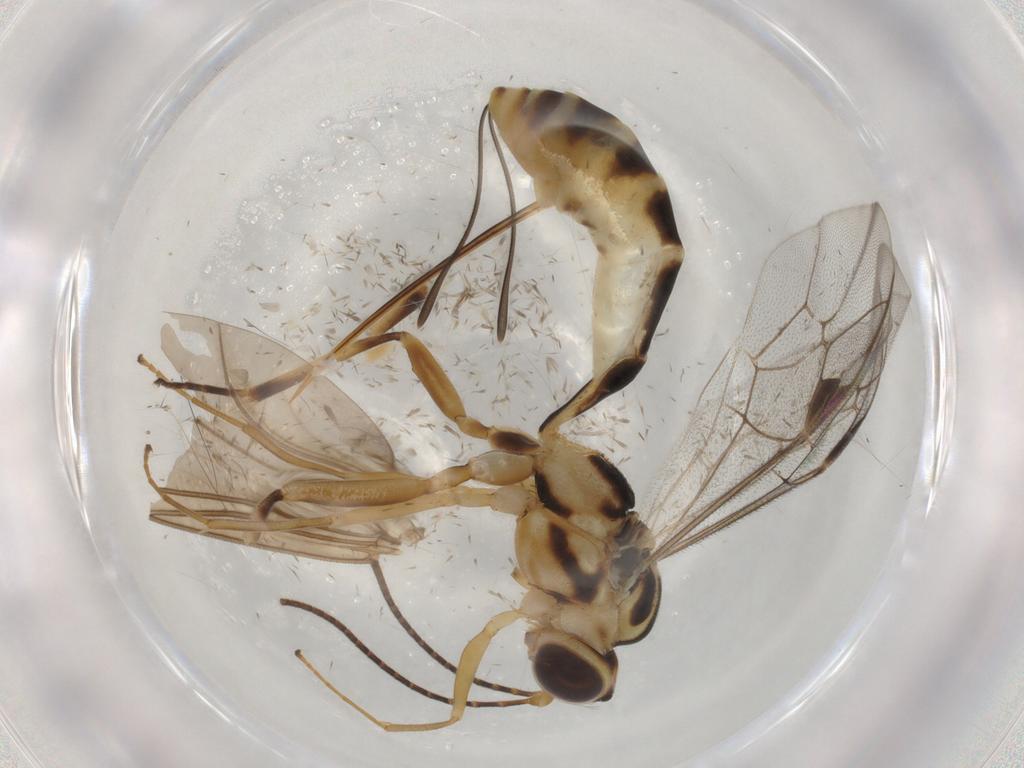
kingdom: Animalia
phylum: Arthropoda
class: Insecta
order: Hymenoptera
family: Ichneumonidae
